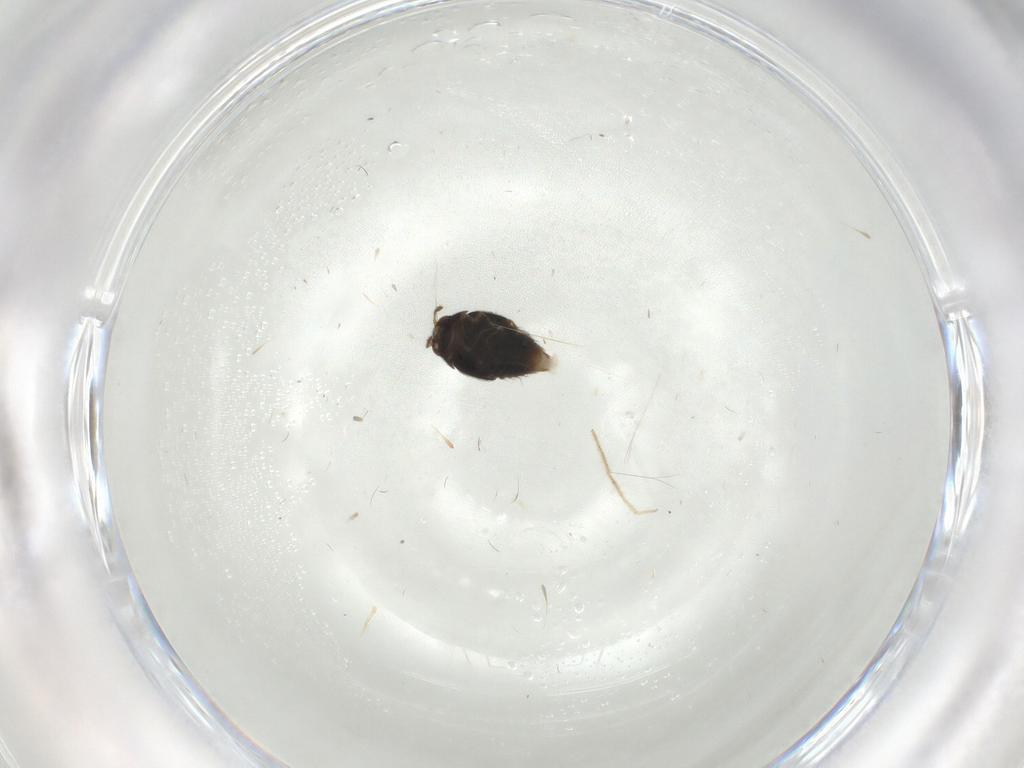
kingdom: Animalia
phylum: Arthropoda
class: Insecta
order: Coleoptera
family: Staphylinidae
